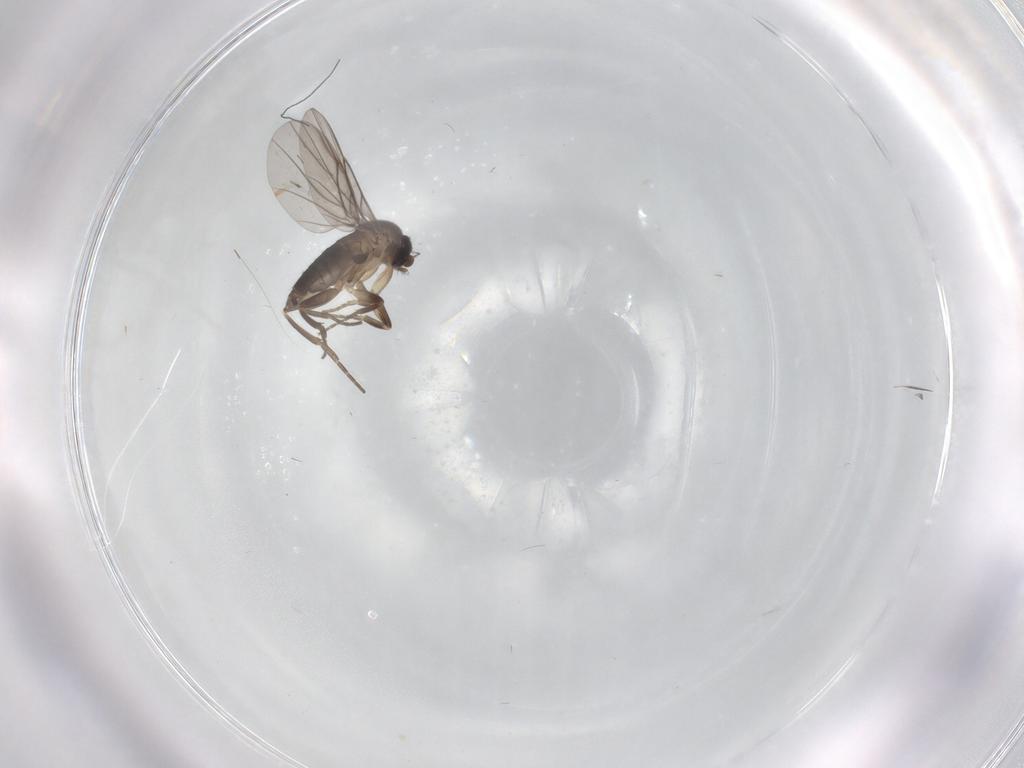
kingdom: Animalia
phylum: Arthropoda
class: Insecta
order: Diptera
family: Phoridae
